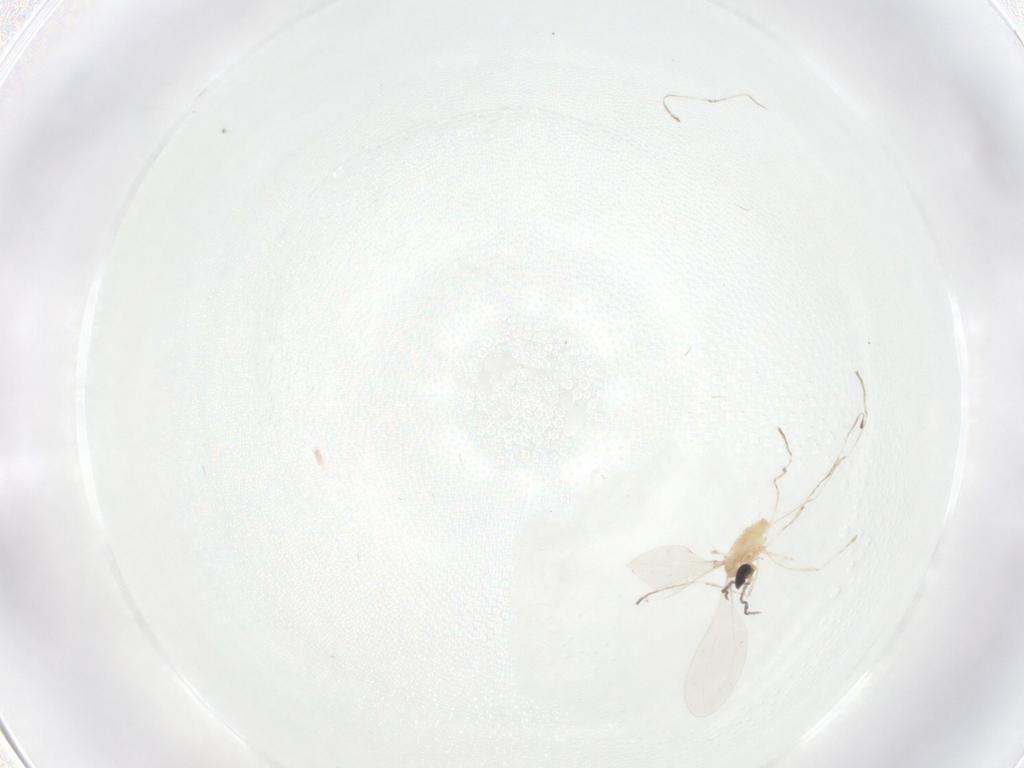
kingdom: Animalia
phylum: Arthropoda
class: Insecta
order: Diptera
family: Cecidomyiidae
